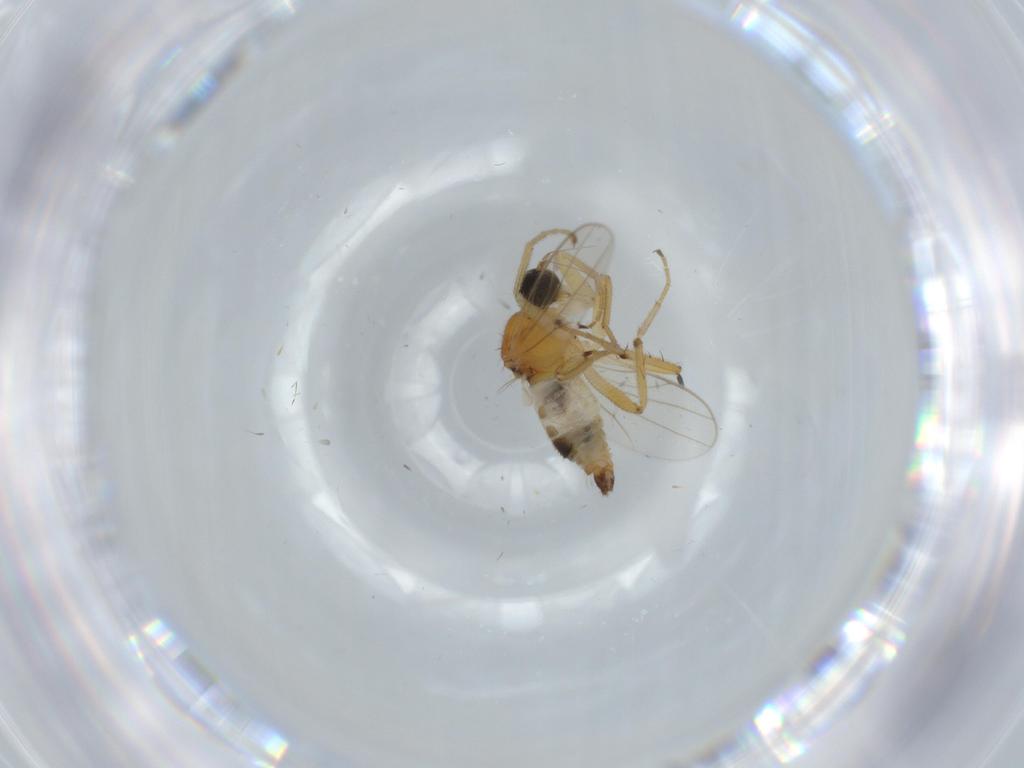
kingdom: Animalia
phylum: Arthropoda
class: Insecta
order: Diptera
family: Hybotidae
